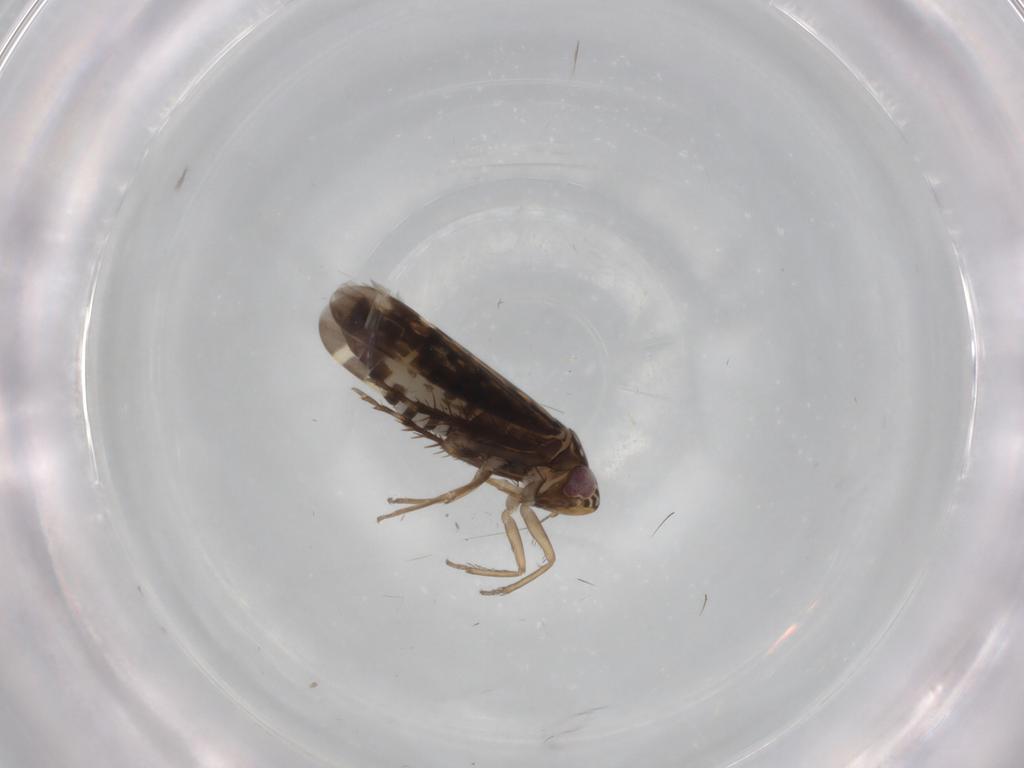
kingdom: Animalia
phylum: Arthropoda
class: Insecta
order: Hemiptera
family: Cicadellidae
